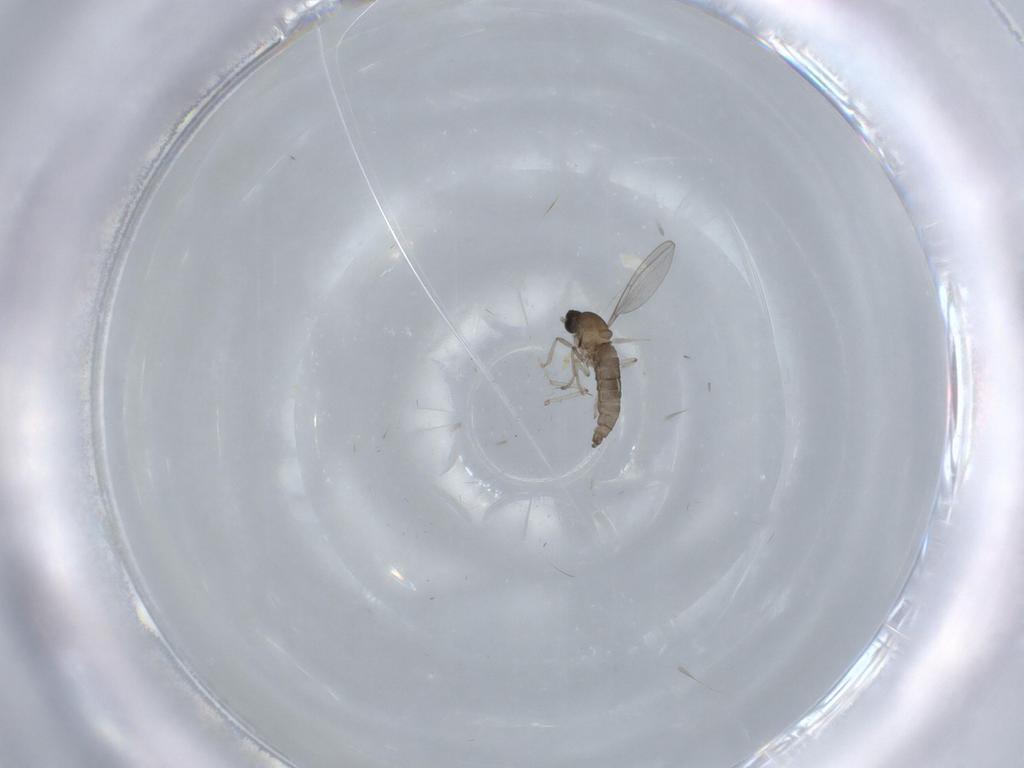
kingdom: Animalia
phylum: Arthropoda
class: Insecta
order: Diptera
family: Cecidomyiidae
